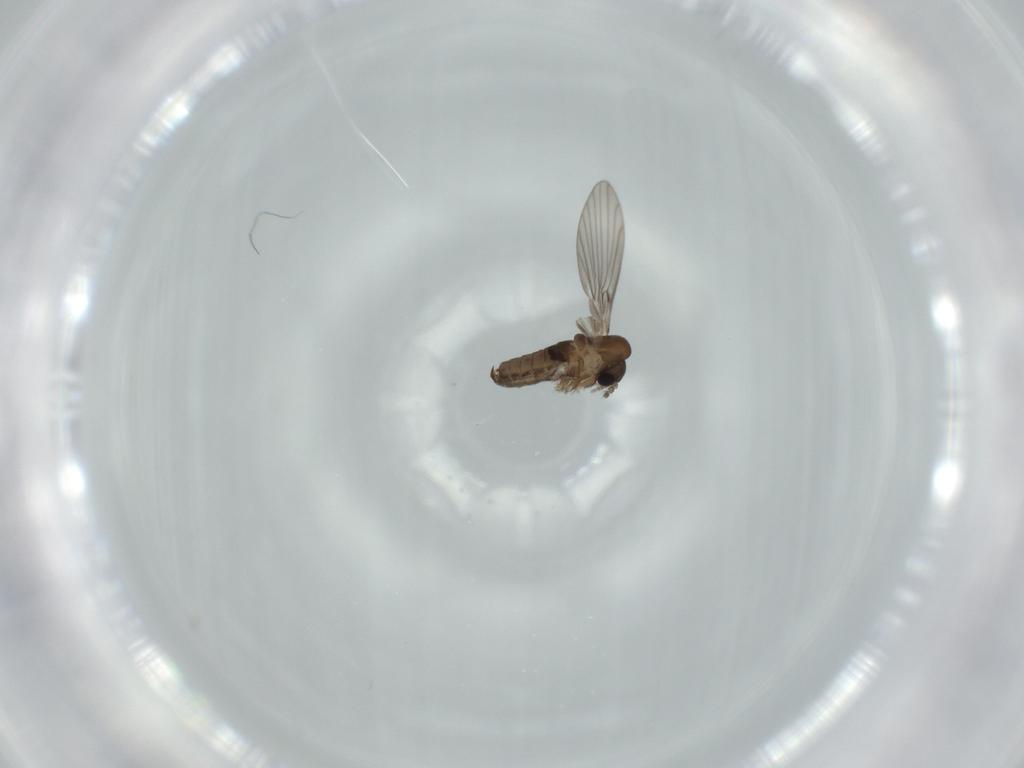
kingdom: Animalia
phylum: Arthropoda
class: Insecta
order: Diptera
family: Psychodidae
